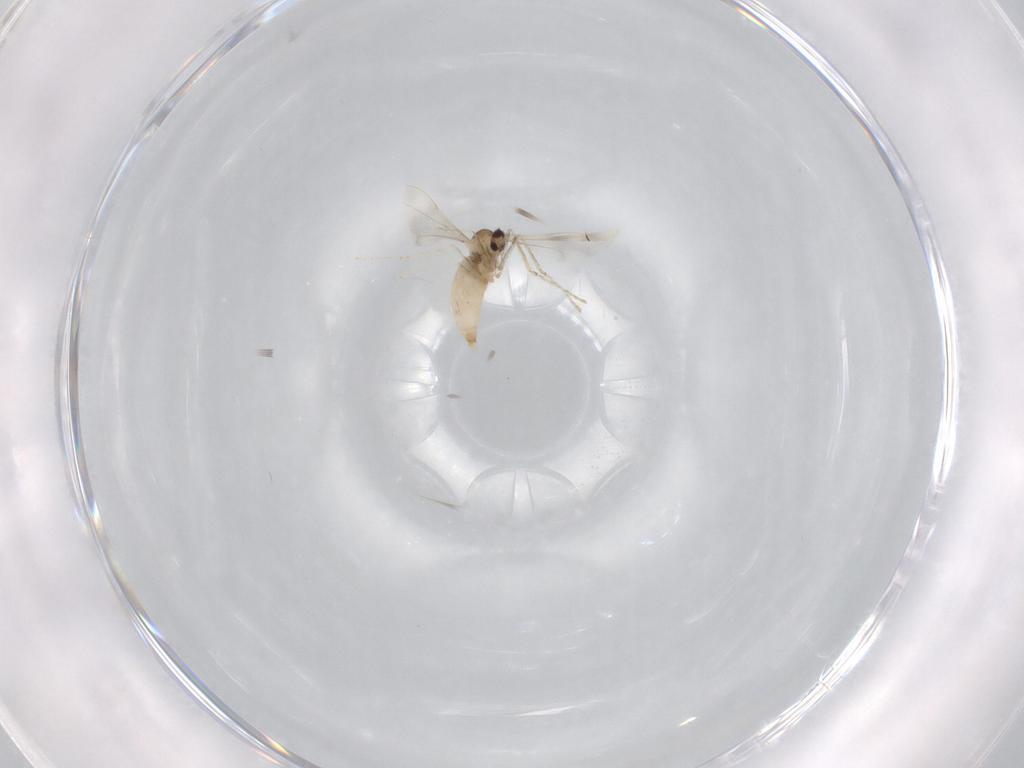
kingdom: Animalia
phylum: Arthropoda
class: Insecta
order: Diptera
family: Cecidomyiidae
